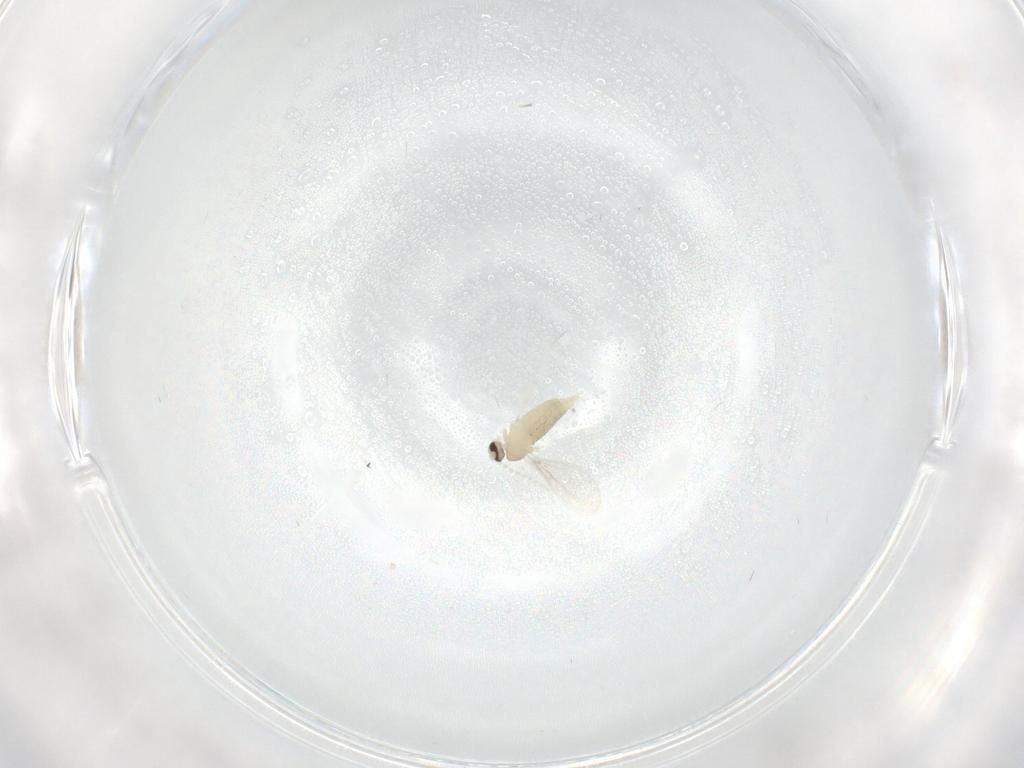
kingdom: Animalia
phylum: Arthropoda
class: Insecta
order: Diptera
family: Cecidomyiidae
